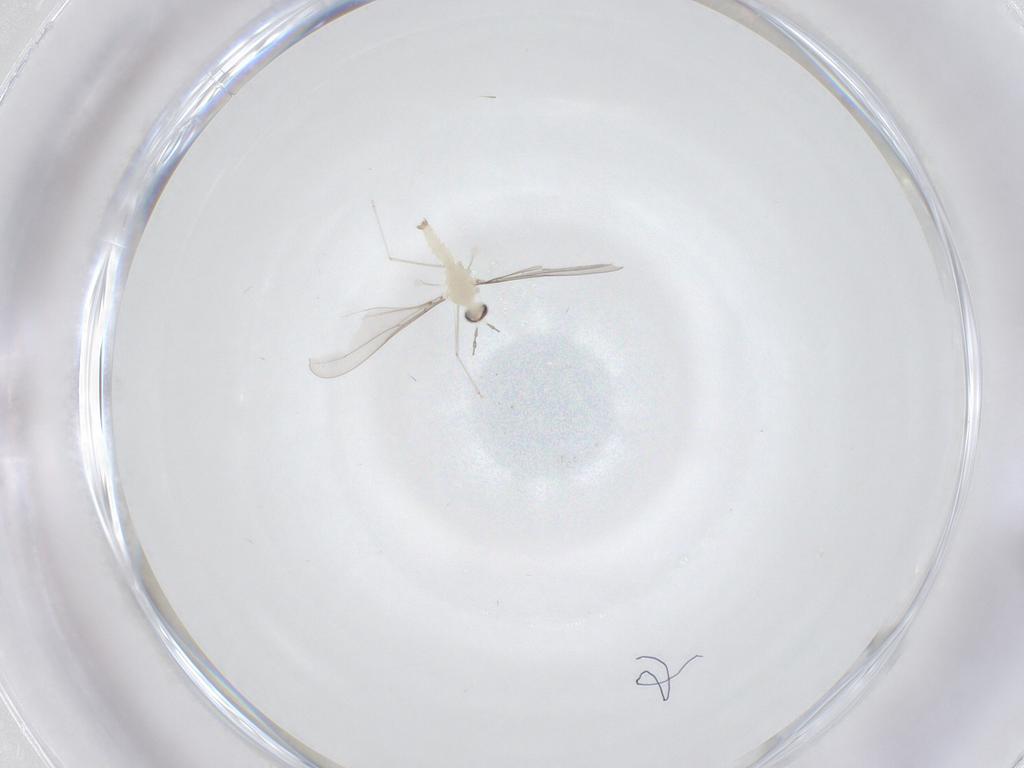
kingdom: Animalia
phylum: Arthropoda
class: Insecta
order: Diptera
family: Cecidomyiidae
